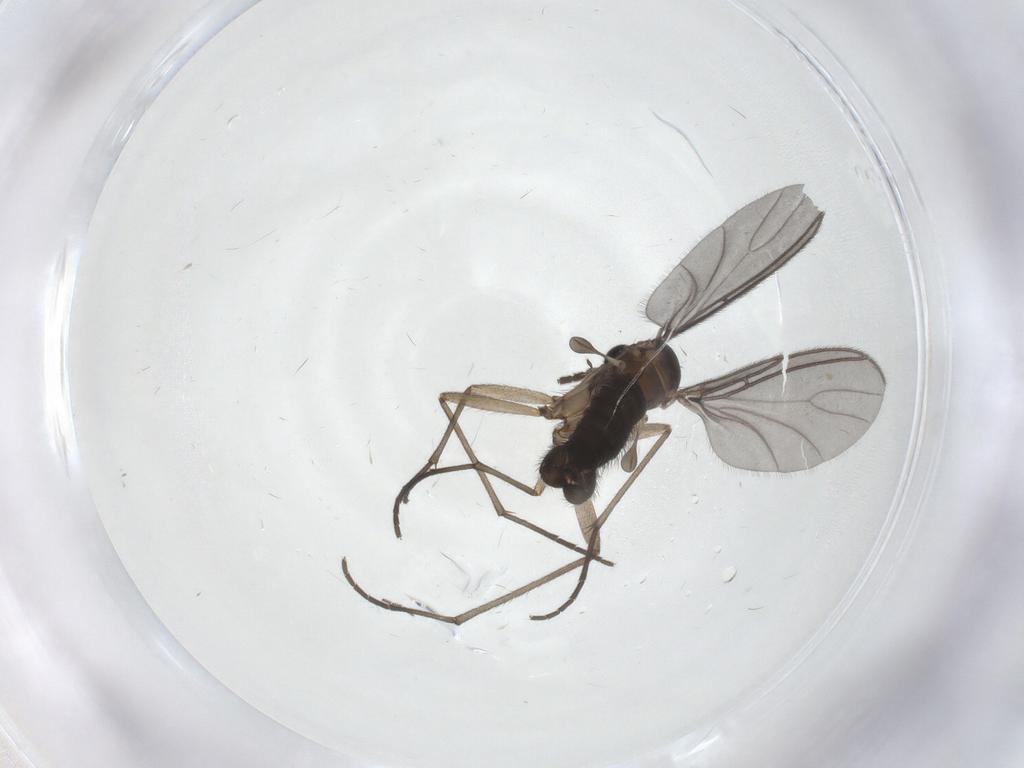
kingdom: Animalia
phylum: Arthropoda
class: Insecta
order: Diptera
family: Sciaridae
